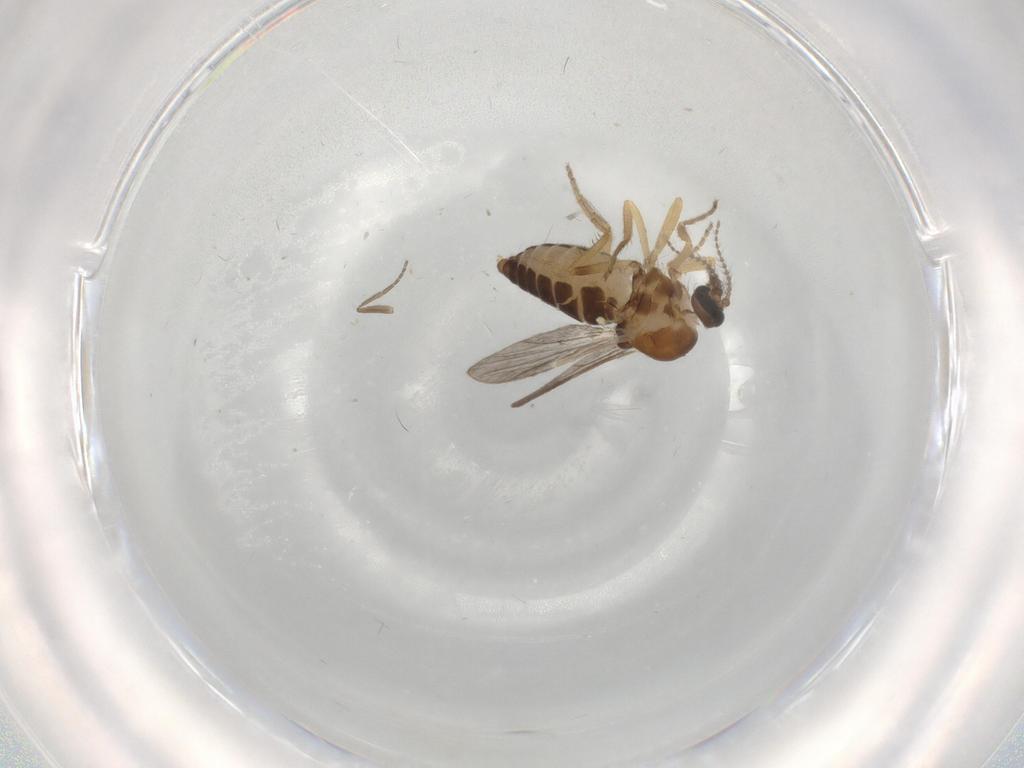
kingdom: Animalia
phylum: Arthropoda
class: Insecta
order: Diptera
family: Ceratopogonidae
